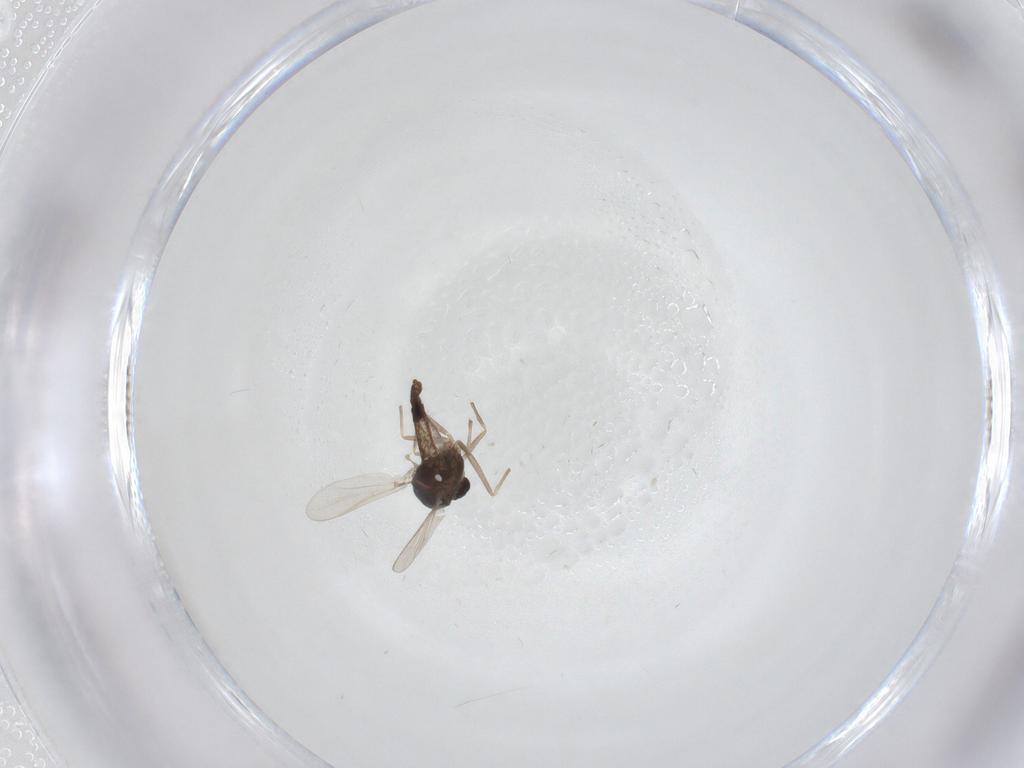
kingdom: Animalia
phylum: Arthropoda
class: Insecta
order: Diptera
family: Chironomidae
